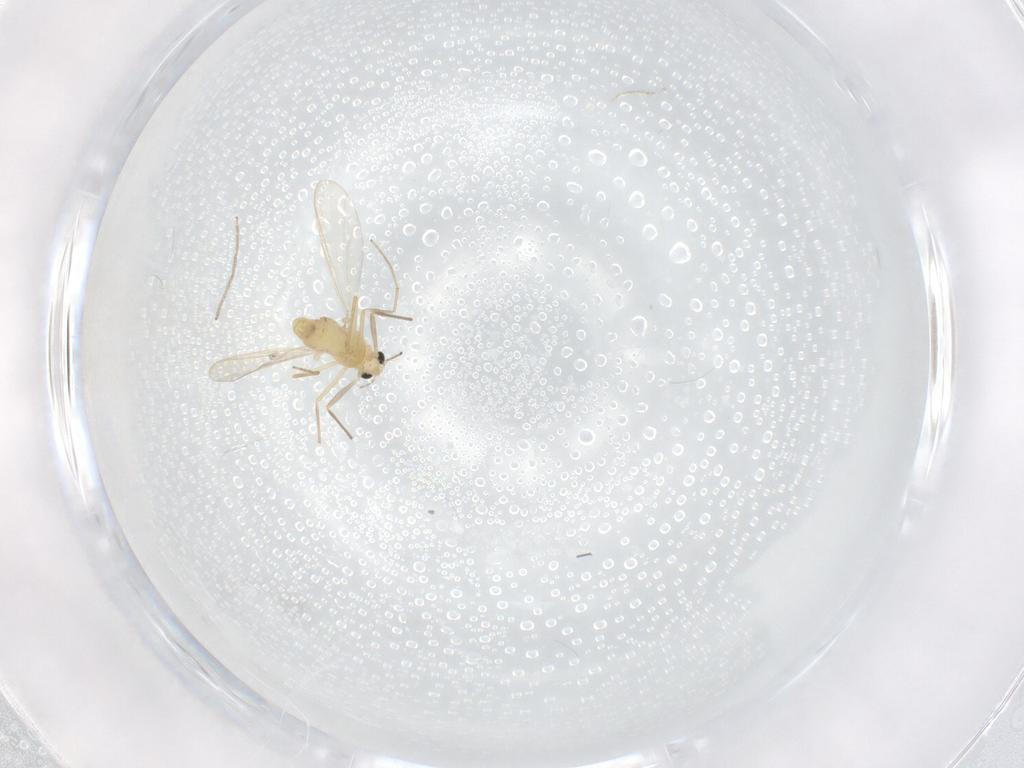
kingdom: Animalia
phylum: Arthropoda
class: Insecta
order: Diptera
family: Chironomidae
